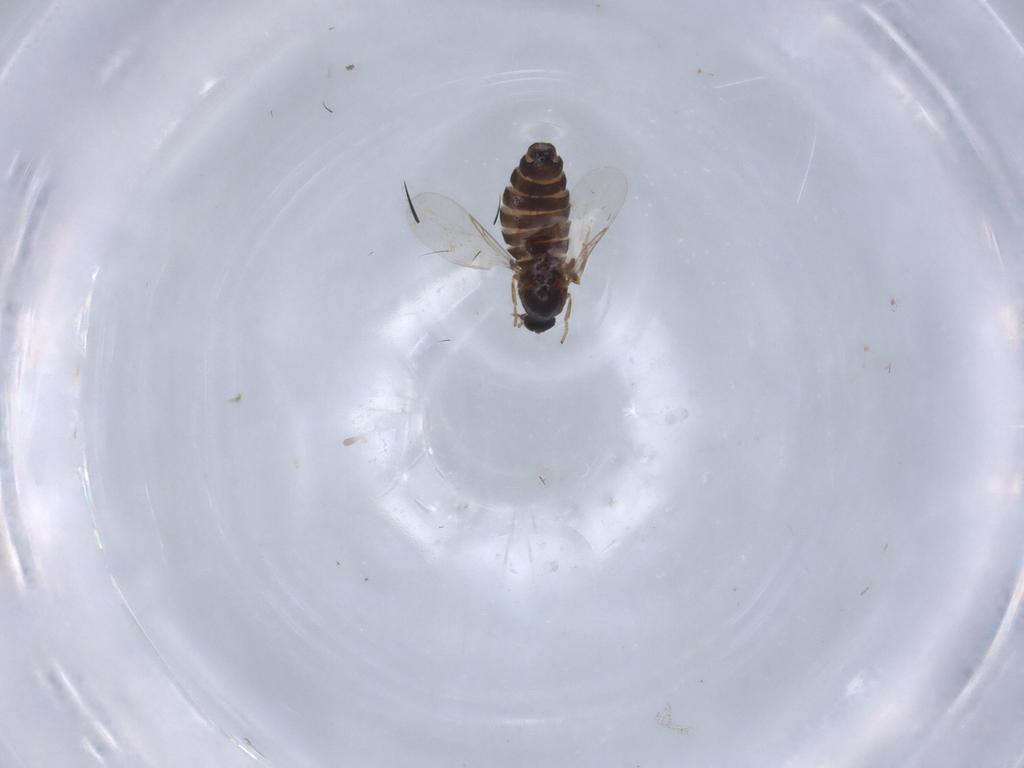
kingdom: Animalia
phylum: Arthropoda
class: Insecta
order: Diptera
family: Scatopsidae
